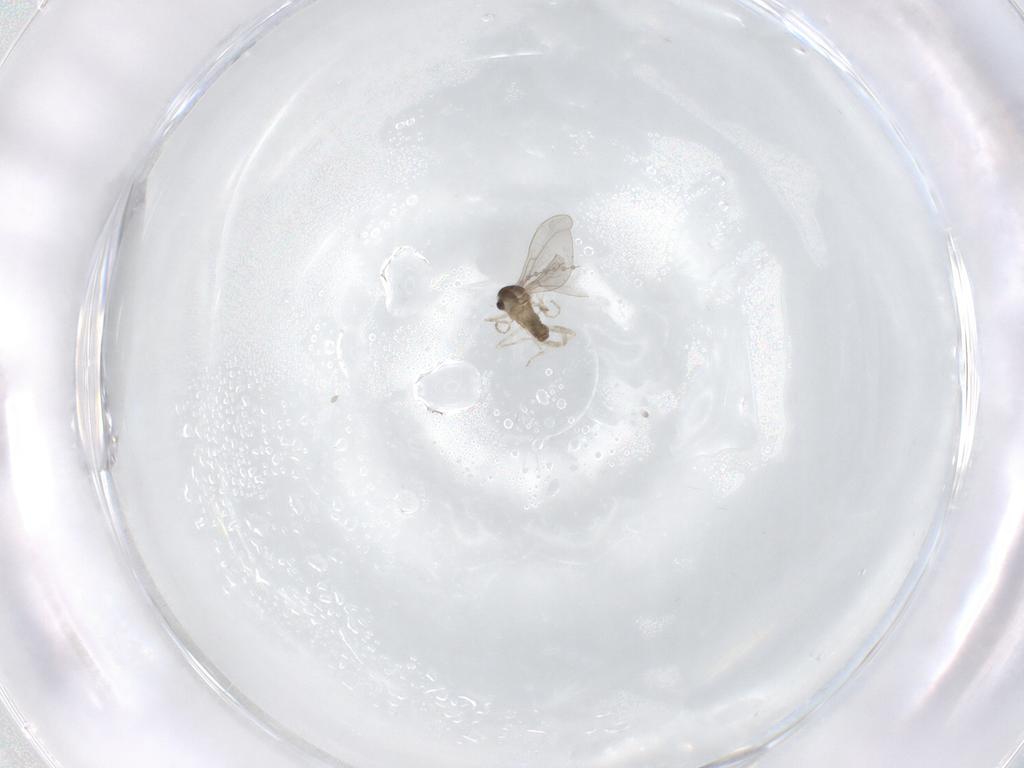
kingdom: Animalia
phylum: Arthropoda
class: Insecta
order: Diptera
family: Cecidomyiidae
